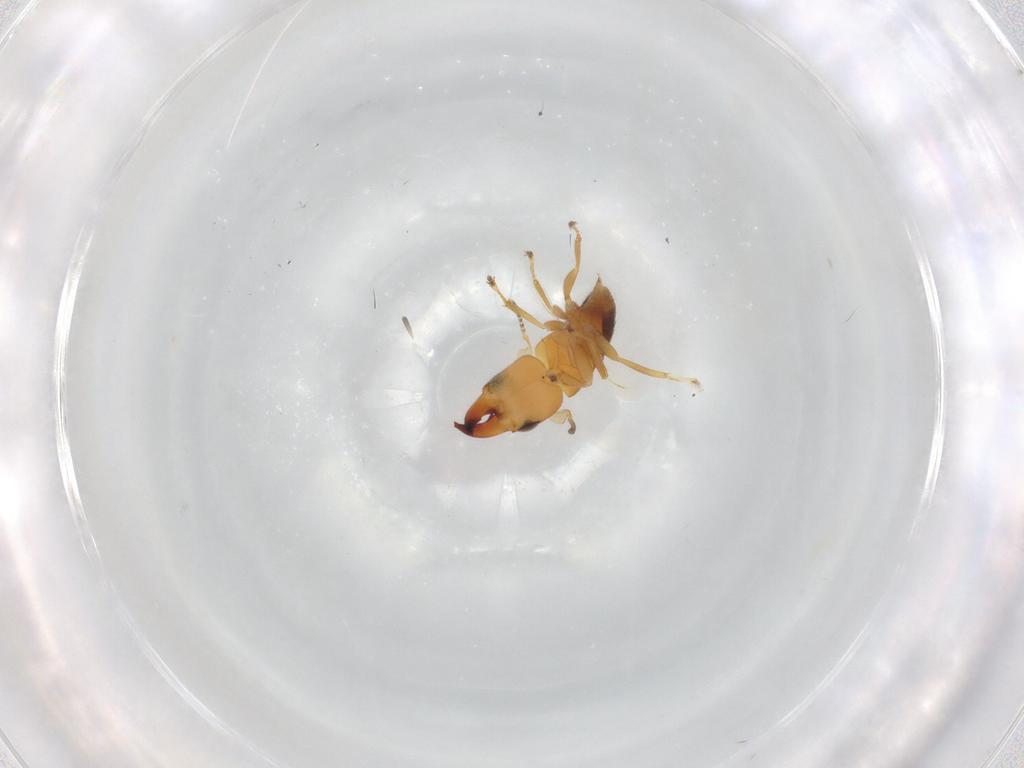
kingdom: Animalia
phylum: Arthropoda
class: Insecta
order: Hymenoptera
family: Pteromalidae
